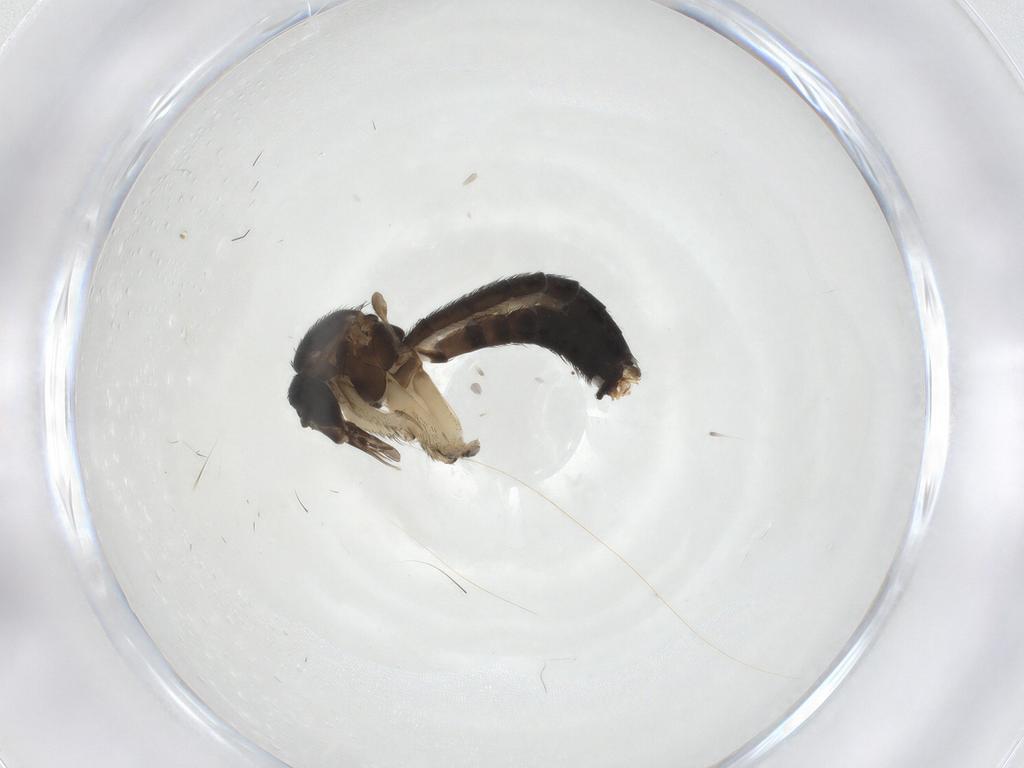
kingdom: Animalia
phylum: Arthropoda
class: Insecta
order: Diptera
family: Keroplatidae
